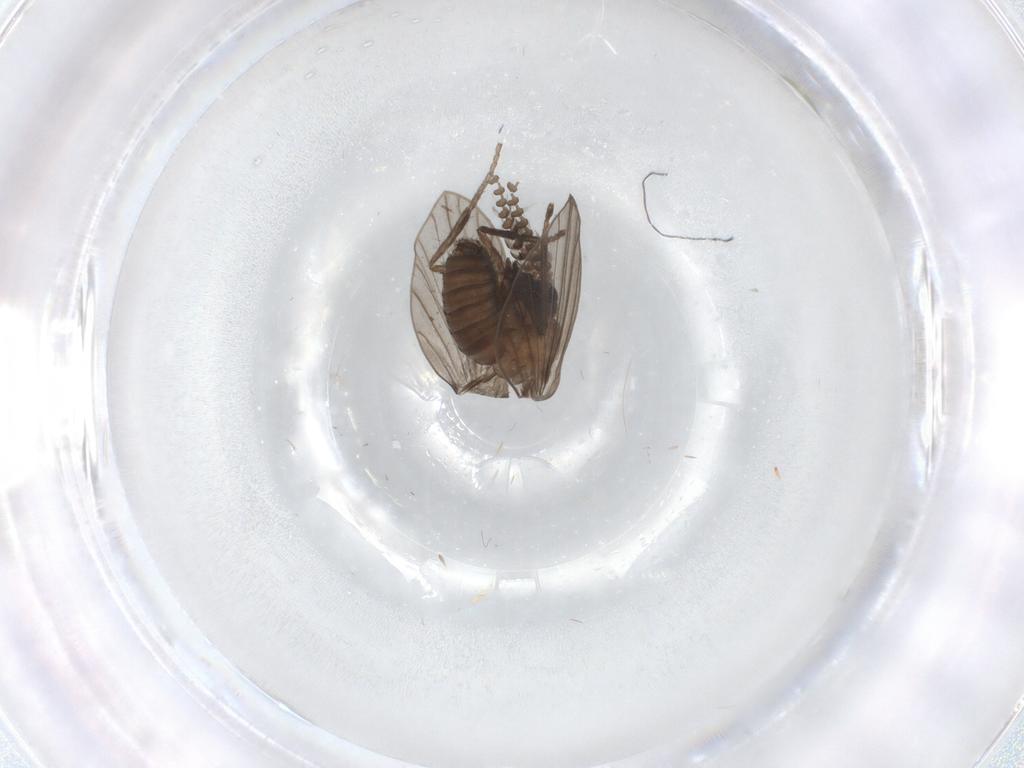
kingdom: Animalia
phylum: Arthropoda
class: Insecta
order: Diptera
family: Psychodidae
